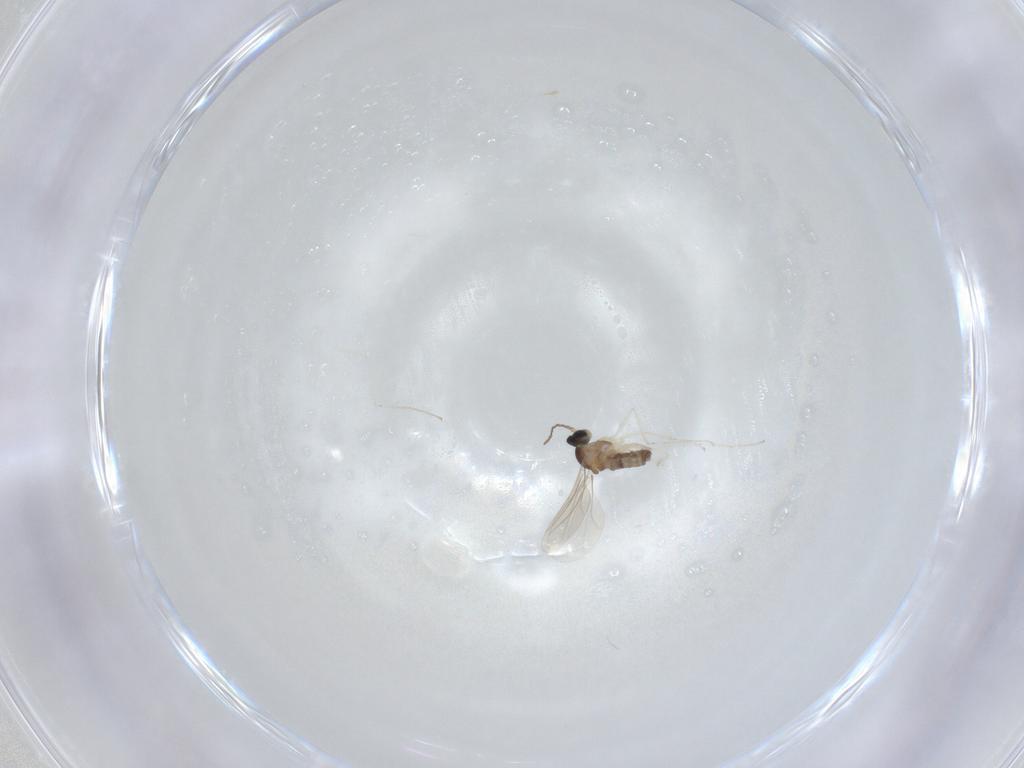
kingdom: Animalia
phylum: Arthropoda
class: Insecta
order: Diptera
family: Cecidomyiidae
